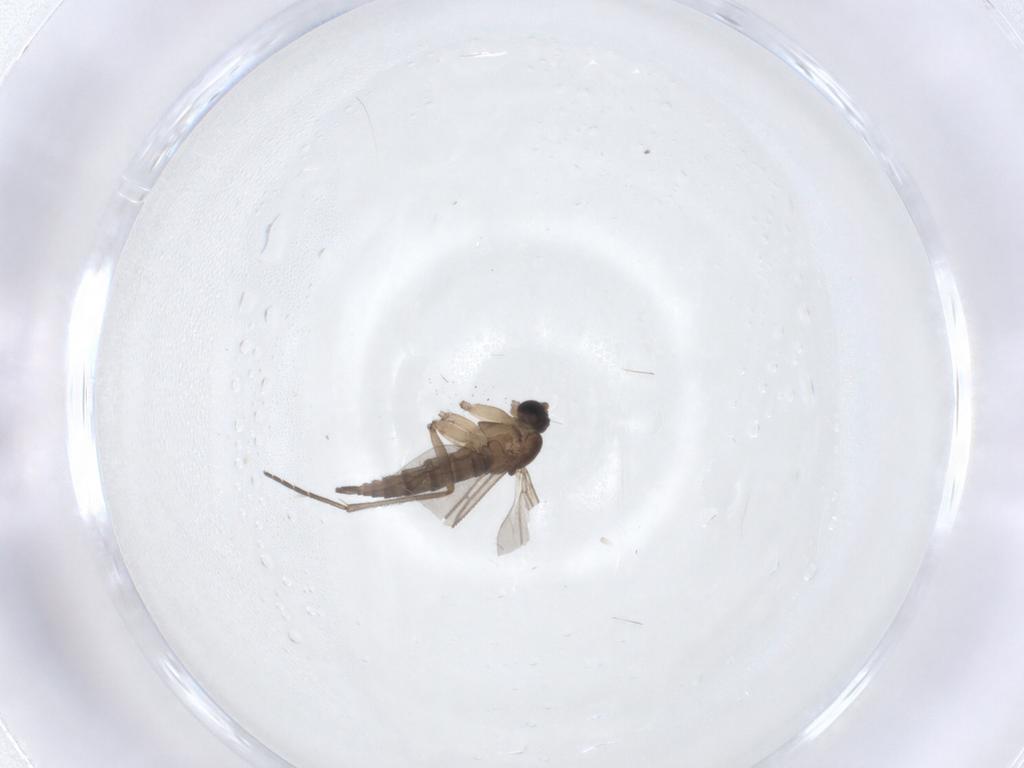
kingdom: Animalia
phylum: Arthropoda
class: Insecta
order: Diptera
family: Sciaridae
